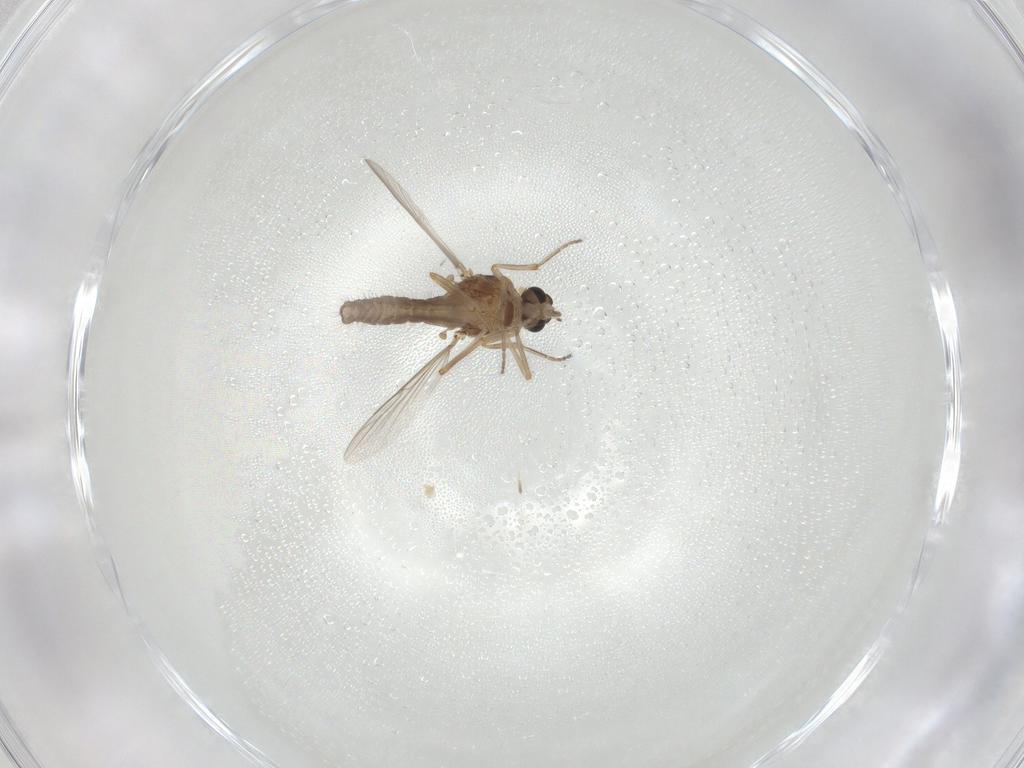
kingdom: Animalia
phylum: Arthropoda
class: Insecta
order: Diptera
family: Ceratopogonidae
